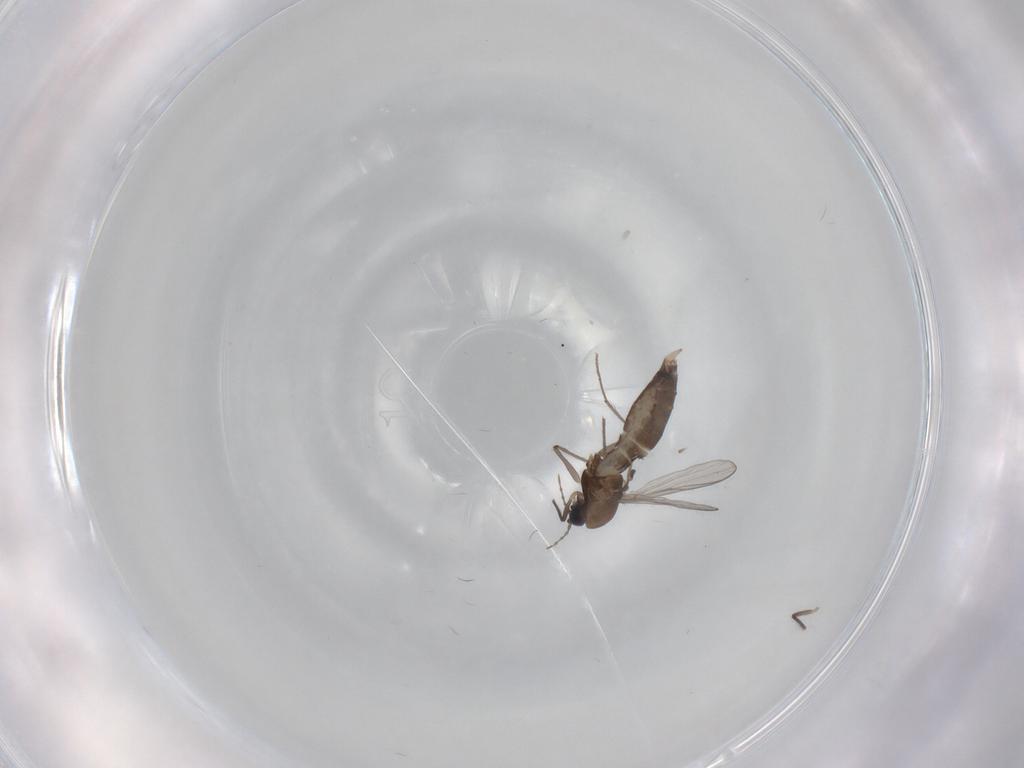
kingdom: Animalia
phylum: Arthropoda
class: Insecta
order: Diptera
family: Chironomidae
